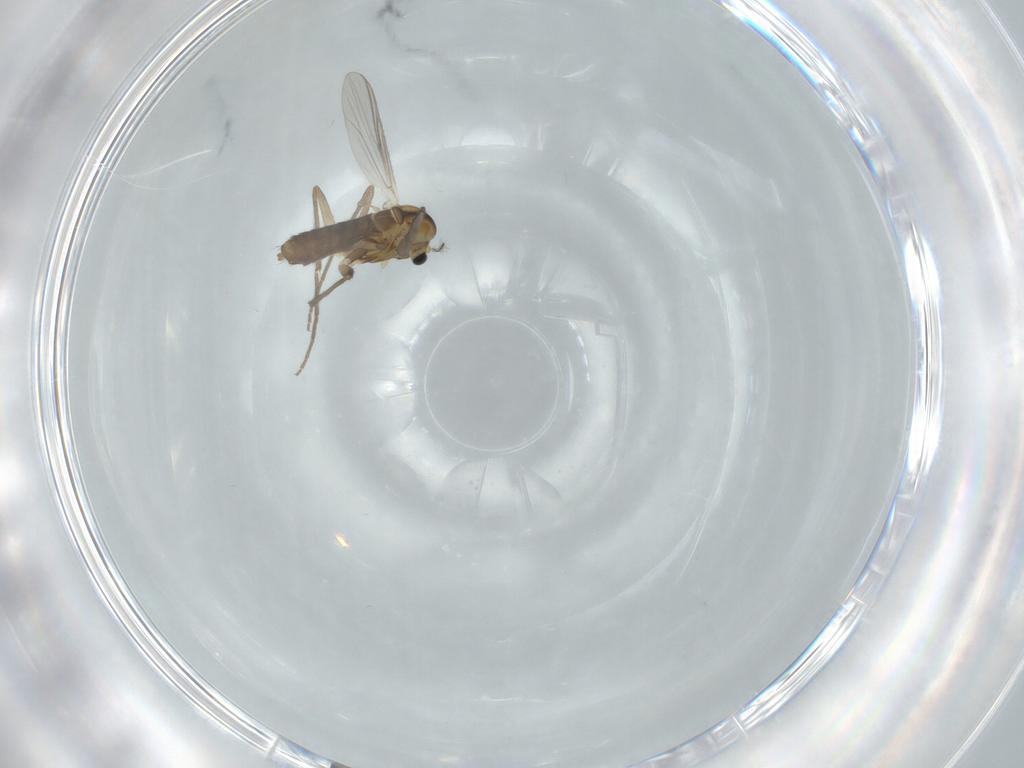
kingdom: Animalia
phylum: Arthropoda
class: Insecta
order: Diptera
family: Chironomidae
